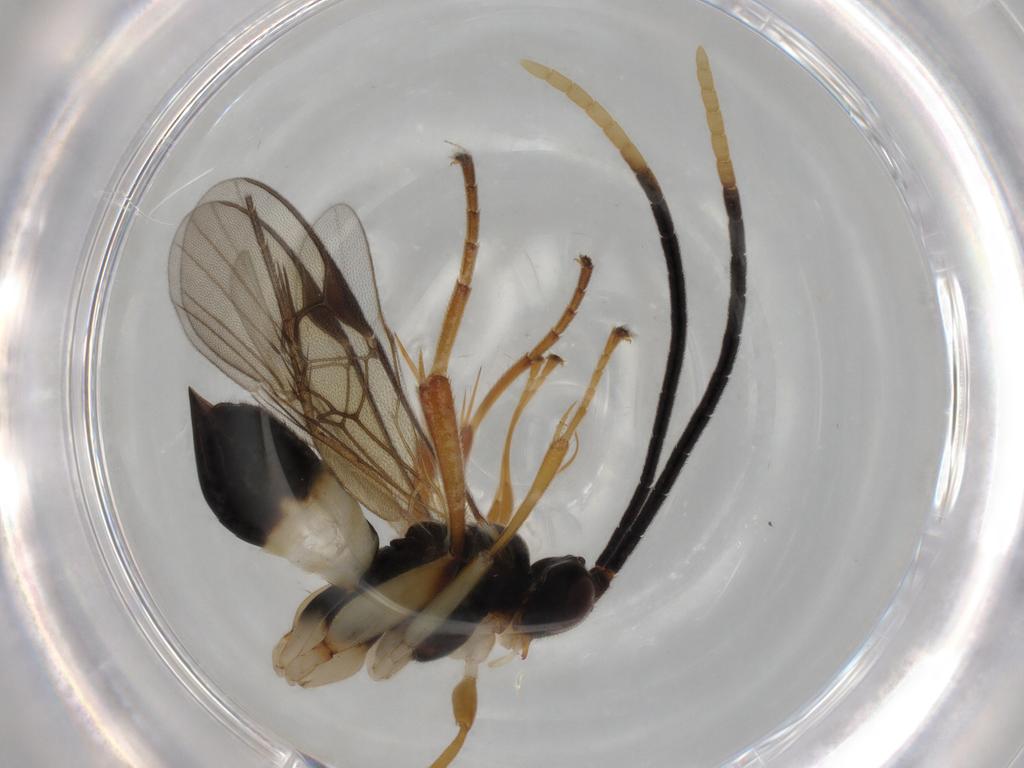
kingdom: Animalia
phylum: Arthropoda
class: Insecta
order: Hymenoptera
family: Braconidae
